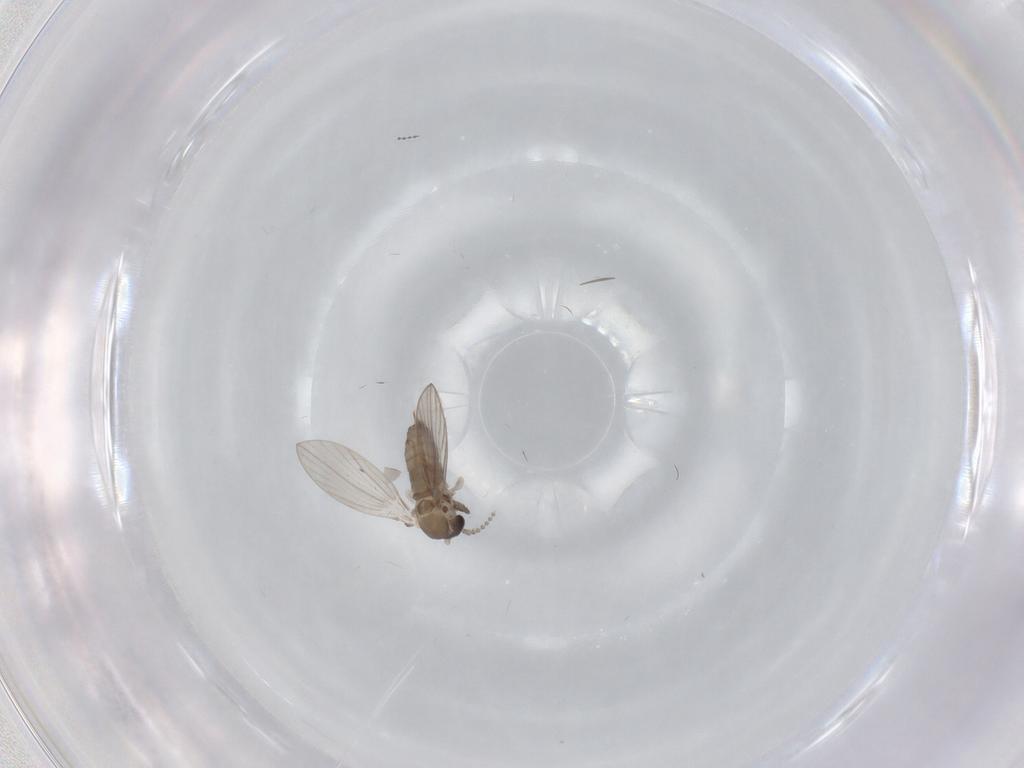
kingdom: Animalia
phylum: Arthropoda
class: Insecta
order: Diptera
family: Psychodidae
